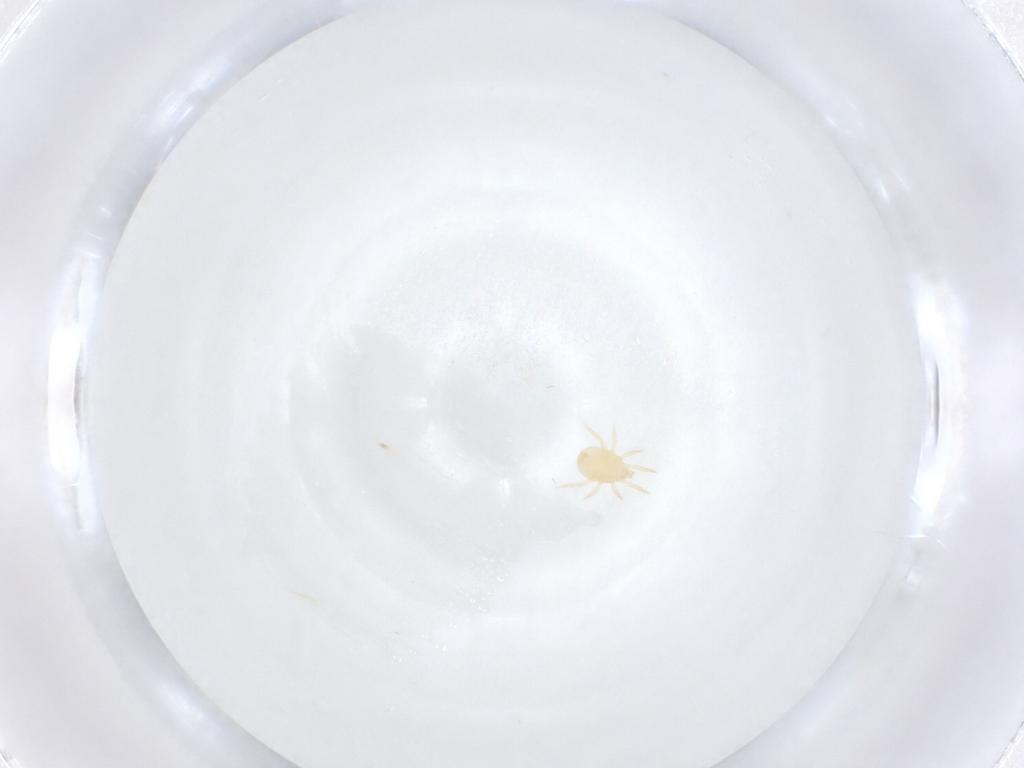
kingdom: Animalia
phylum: Arthropoda
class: Arachnida
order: Mesostigmata
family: Ameroseiidae
